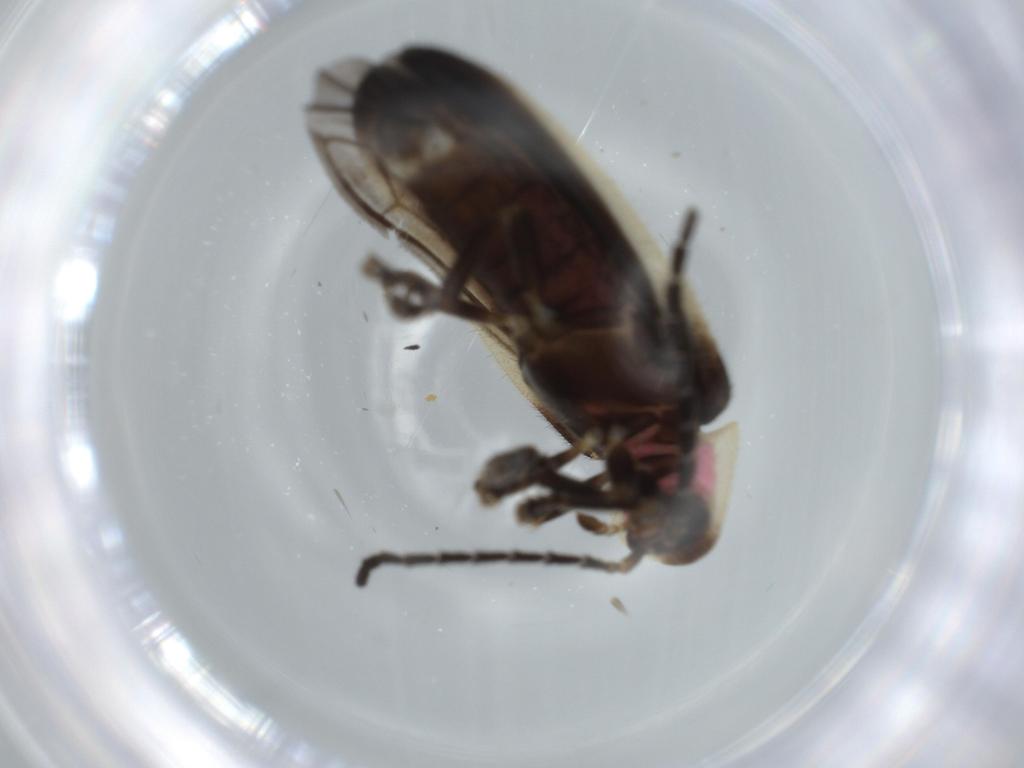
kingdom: Animalia
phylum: Arthropoda
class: Insecta
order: Coleoptera
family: Lampyridae
